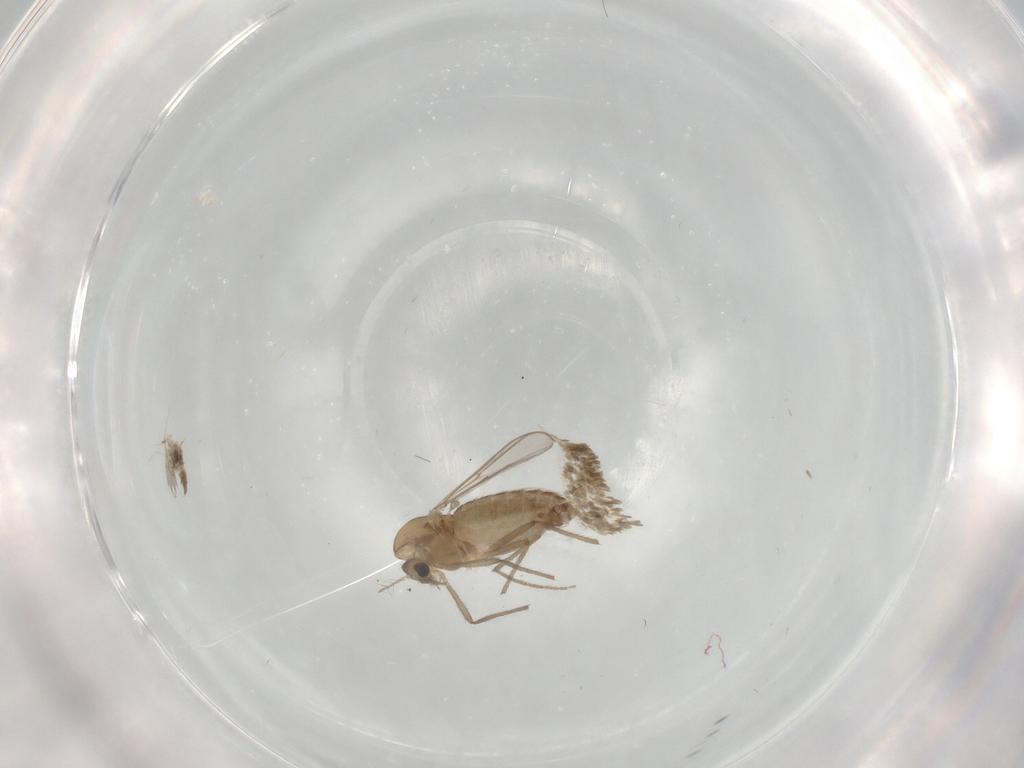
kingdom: Animalia
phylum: Arthropoda
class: Insecta
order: Diptera
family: Chironomidae
